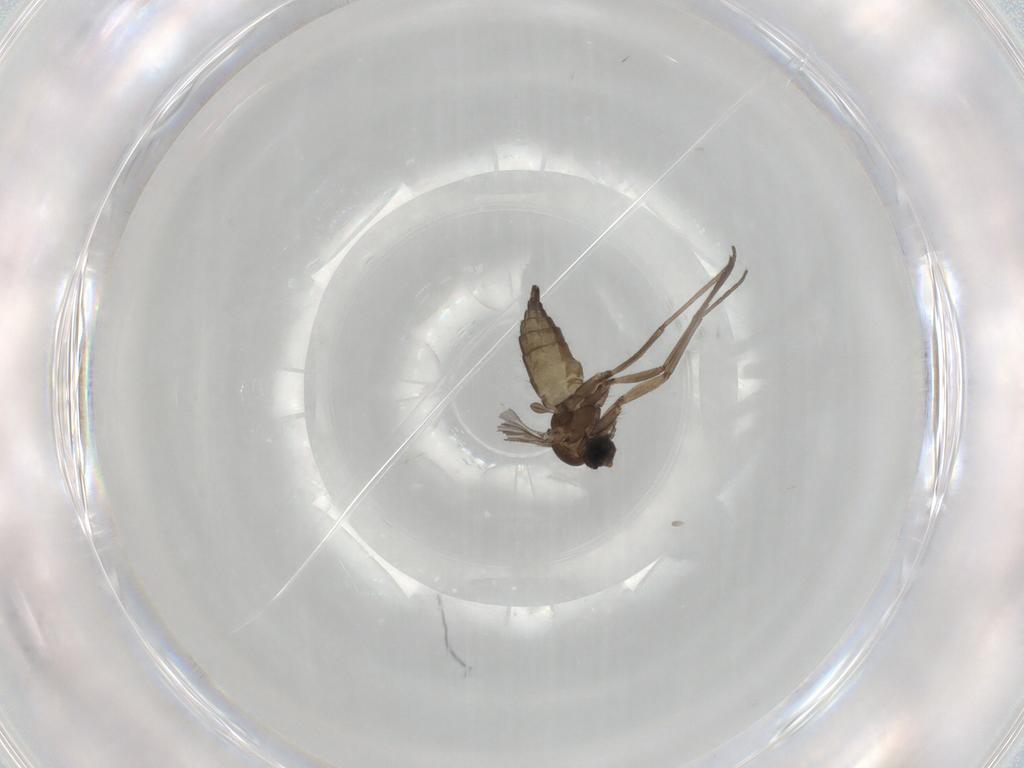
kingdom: Animalia
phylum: Arthropoda
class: Insecta
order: Diptera
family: Sciaridae
